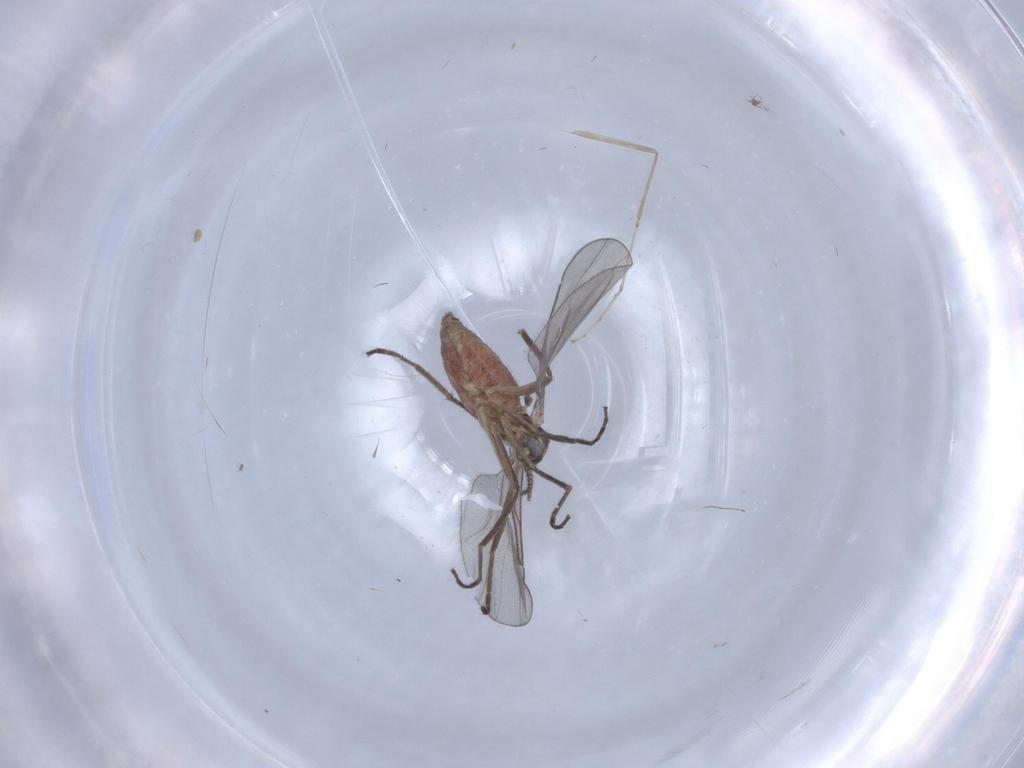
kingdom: Animalia
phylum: Arthropoda
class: Insecta
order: Diptera
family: Cecidomyiidae
